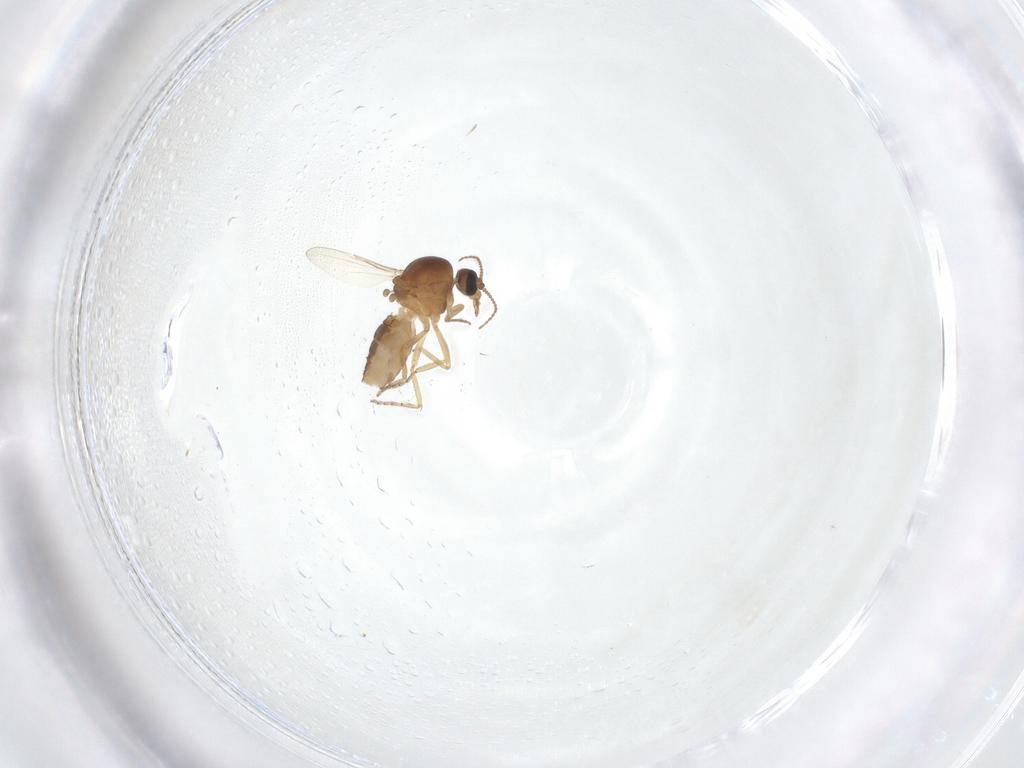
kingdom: Animalia
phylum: Arthropoda
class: Insecta
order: Diptera
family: Ceratopogonidae
